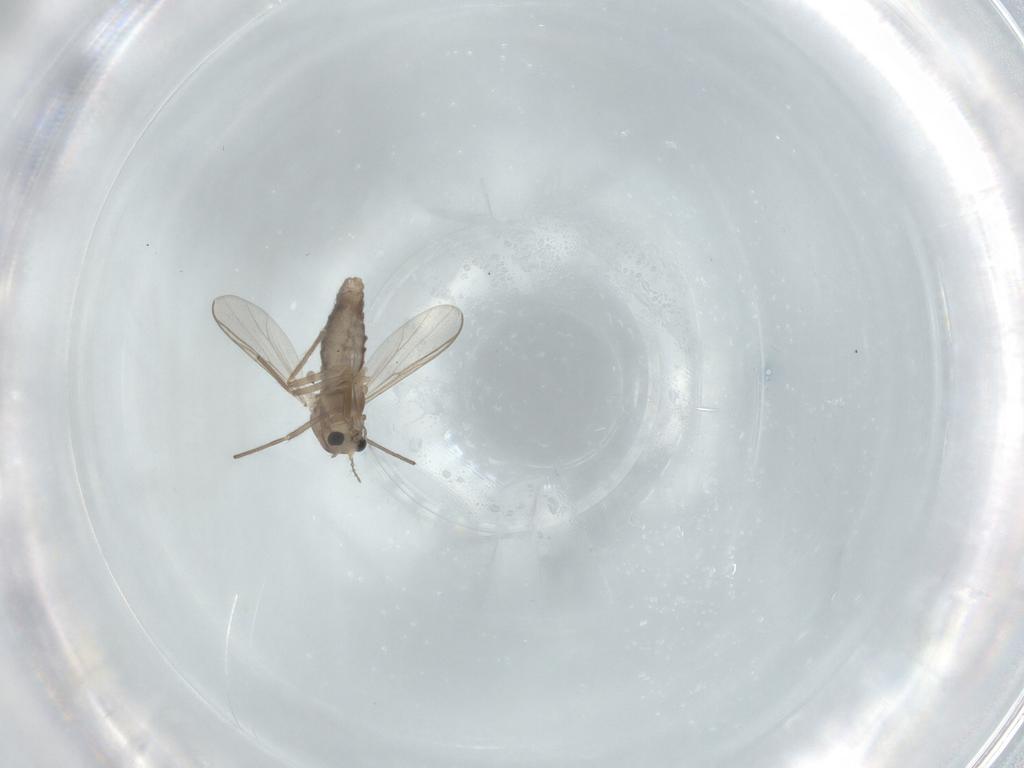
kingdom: Animalia
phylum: Arthropoda
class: Insecta
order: Diptera
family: Chironomidae
